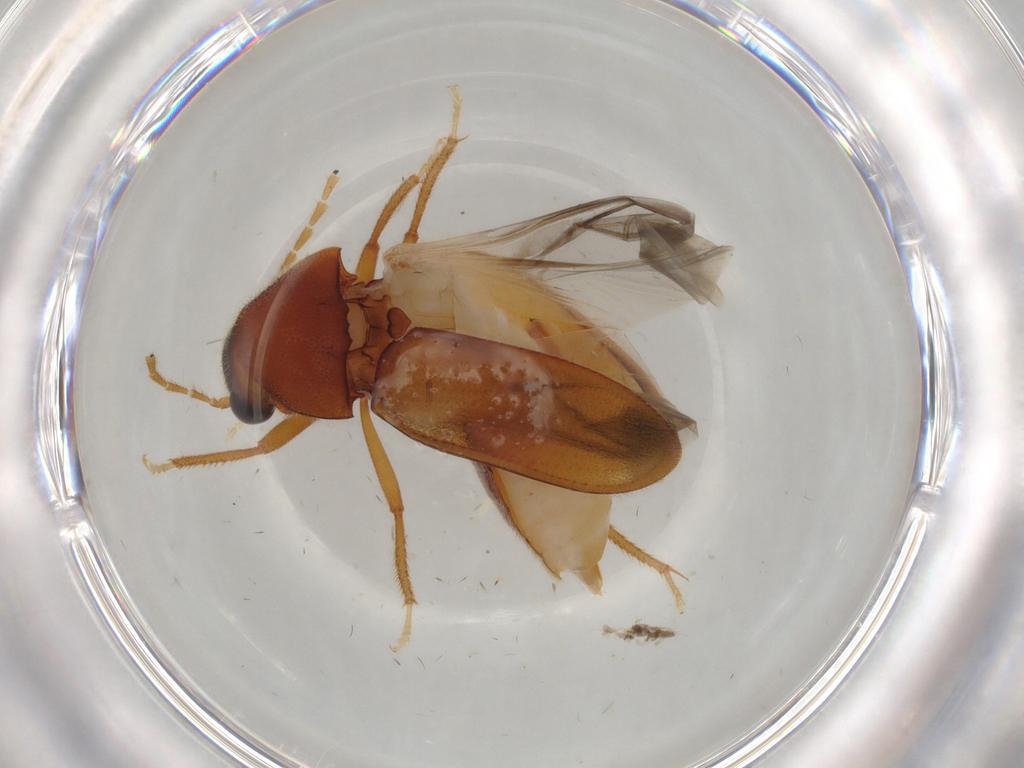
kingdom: Animalia
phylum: Arthropoda
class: Insecta
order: Coleoptera
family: Ptilodactylidae
